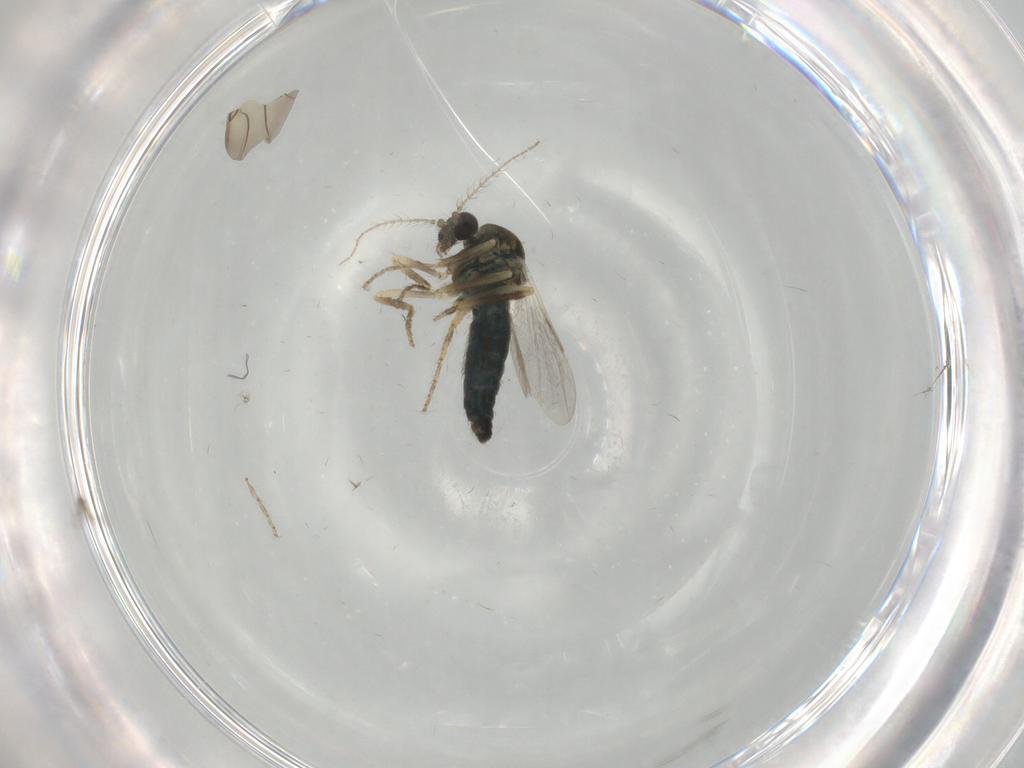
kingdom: Animalia
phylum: Arthropoda
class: Insecta
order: Diptera
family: Ceratopogonidae
